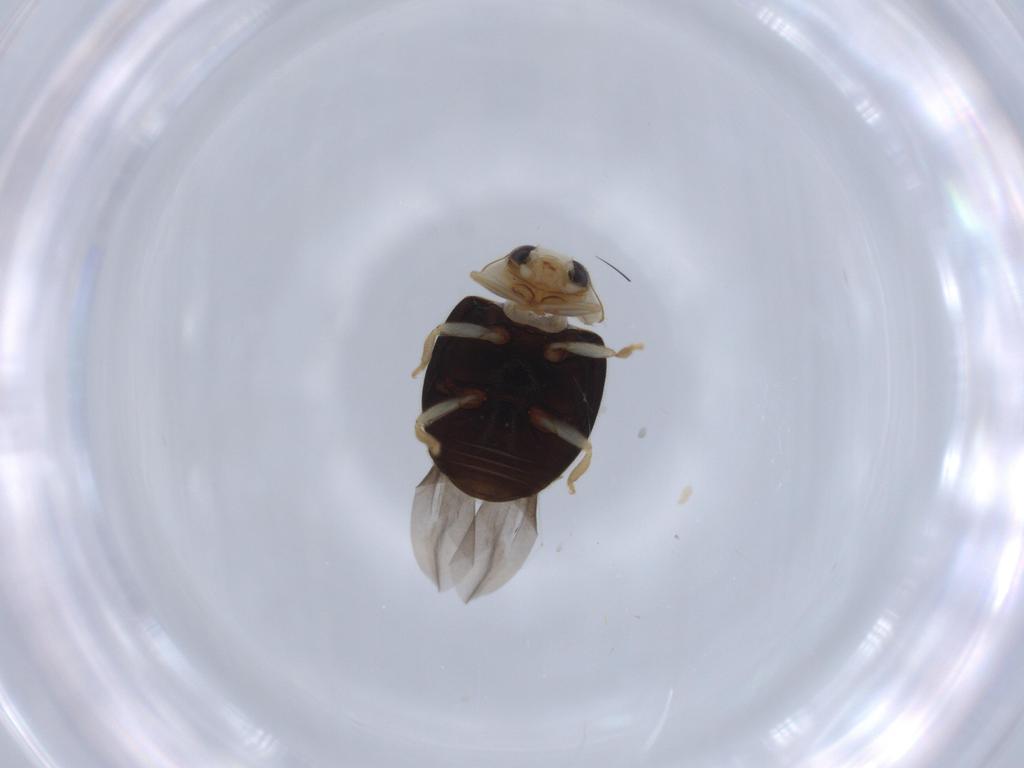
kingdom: Animalia
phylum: Arthropoda
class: Insecta
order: Coleoptera
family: Coccinellidae
